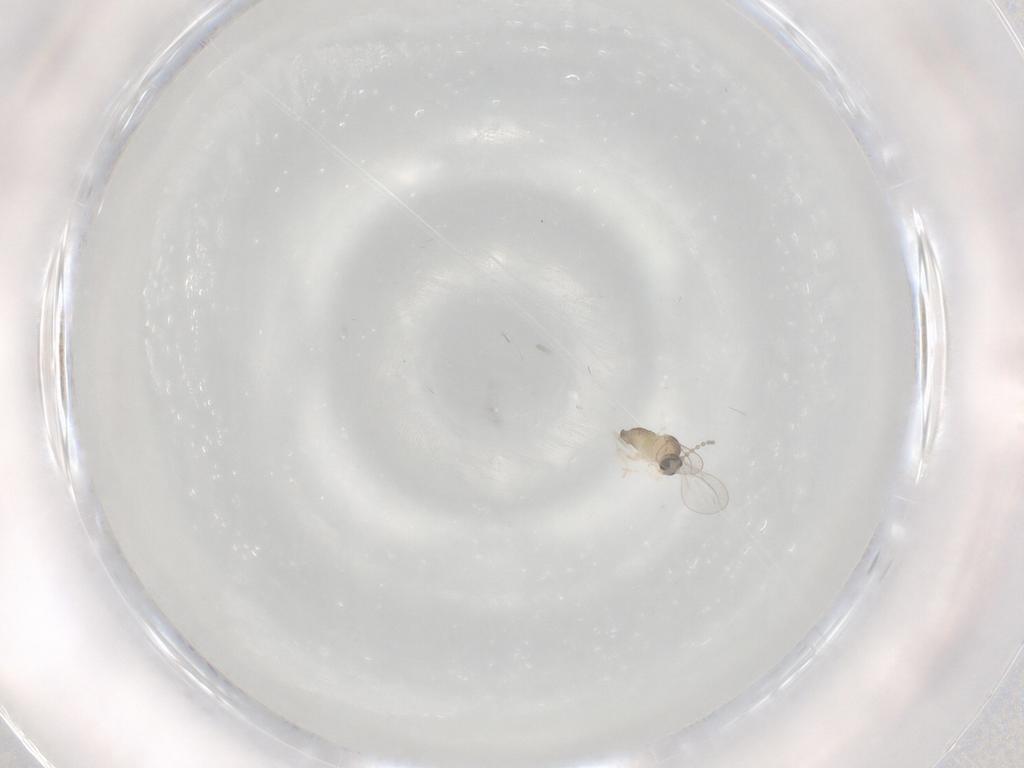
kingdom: Animalia
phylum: Arthropoda
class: Insecta
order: Diptera
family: Cecidomyiidae
